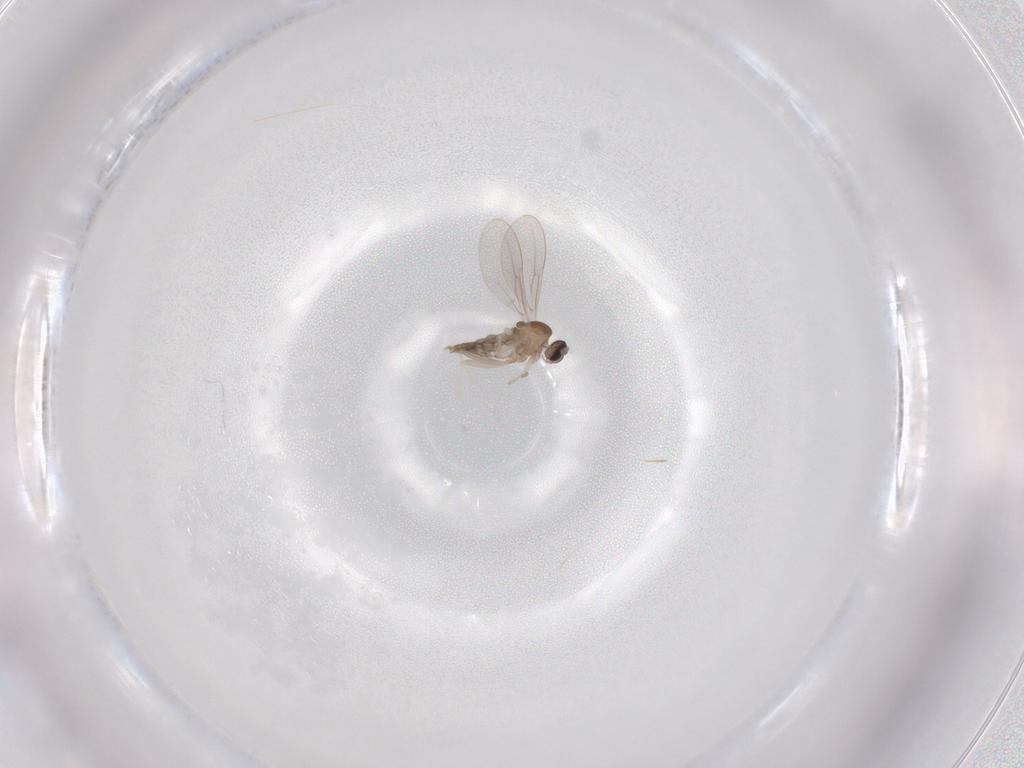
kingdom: Animalia
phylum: Arthropoda
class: Insecta
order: Diptera
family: Cecidomyiidae
